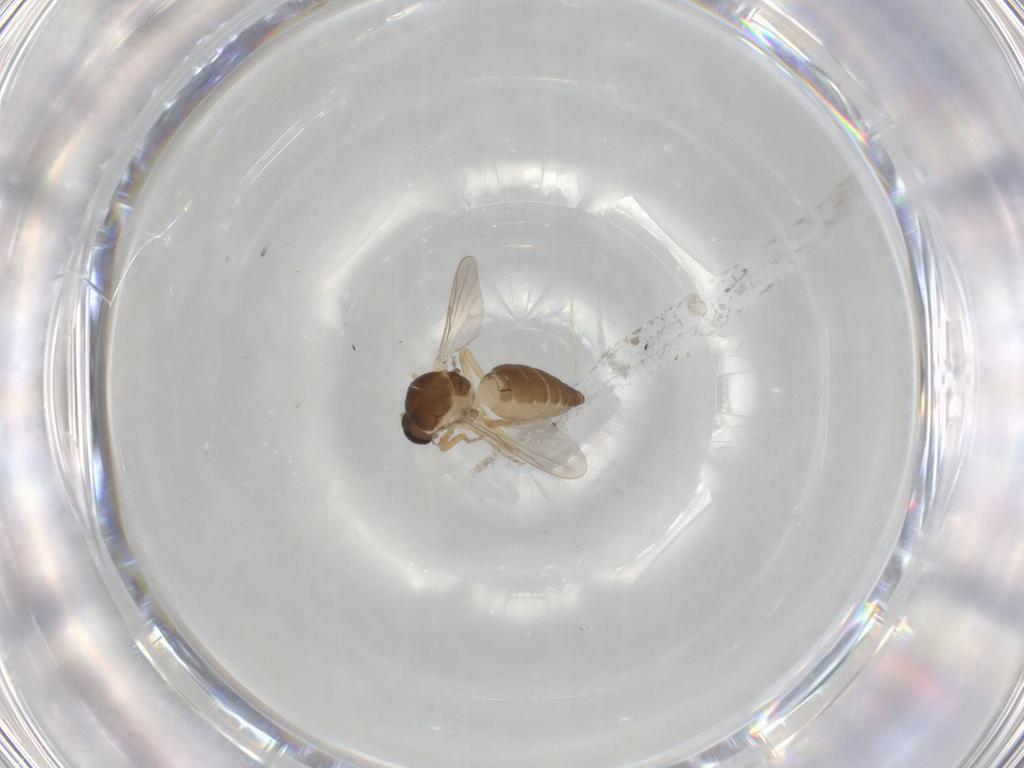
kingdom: Animalia
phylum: Arthropoda
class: Insecta
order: Diptera
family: Ceratopogonidae
